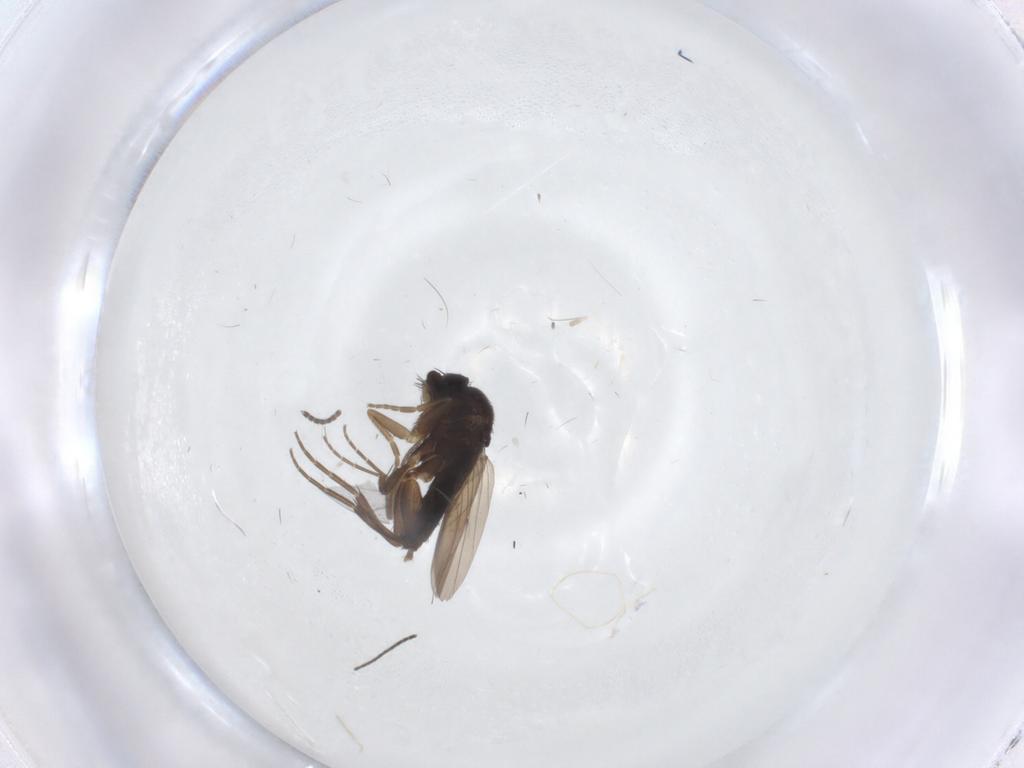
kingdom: Animalia
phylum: Arthropoda
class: Insecta
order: Diptera
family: Phoridae
